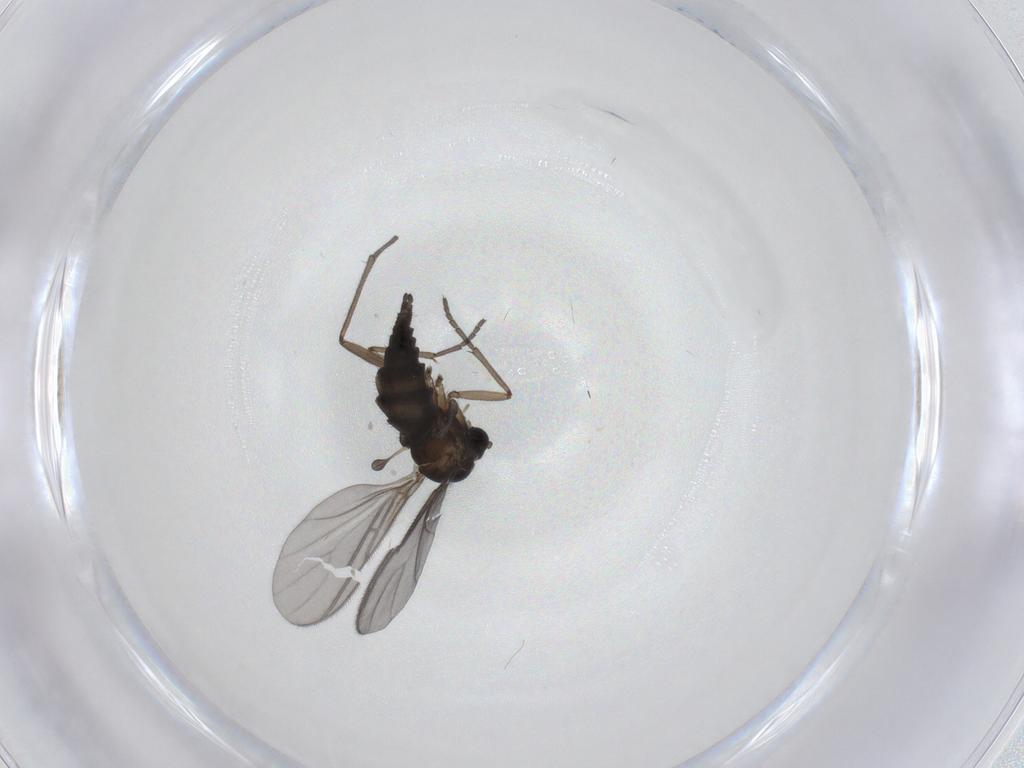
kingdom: Animalia
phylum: Arthropoda
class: Insecta
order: Diptera
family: Sciaridae
